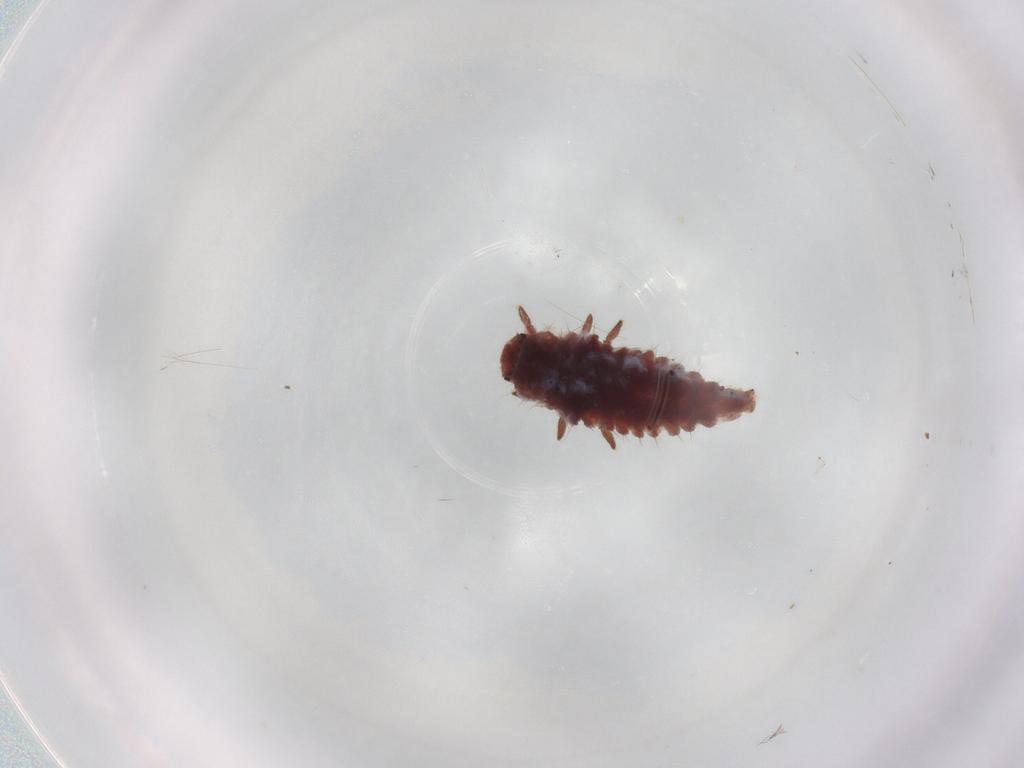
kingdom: Animalia
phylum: Arthropoda
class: Insecta
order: Coleoptera
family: Coccinellidae
